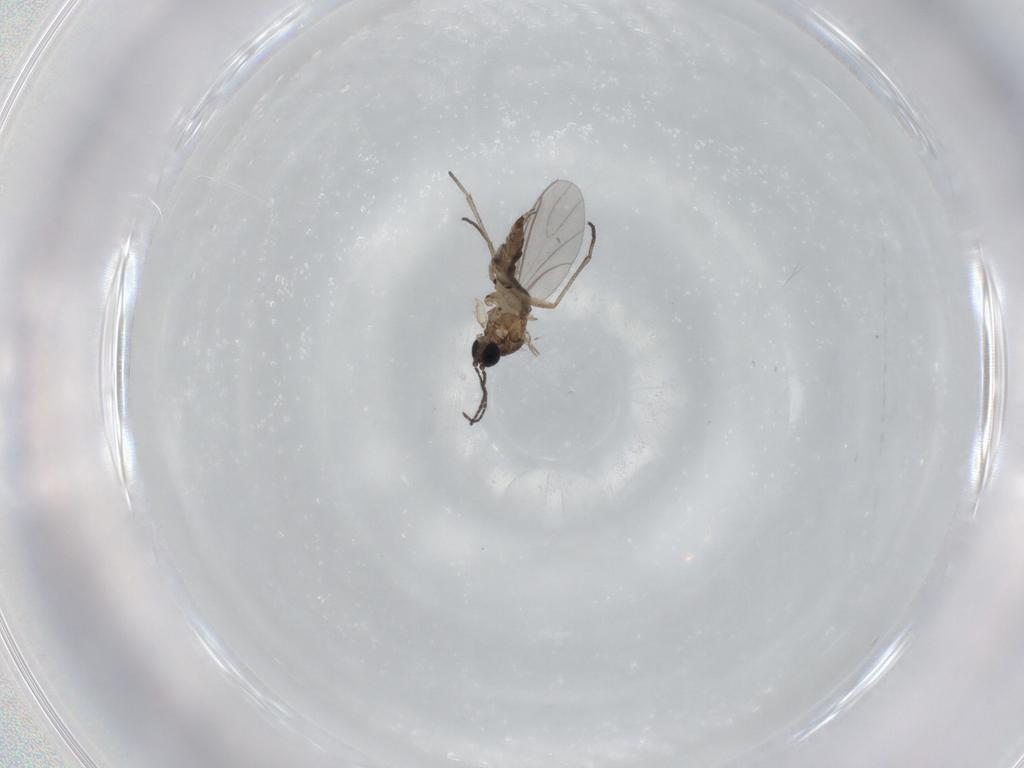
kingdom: Animalia
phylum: Arthropoda
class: Insecta
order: Diptera
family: Sciaridae
